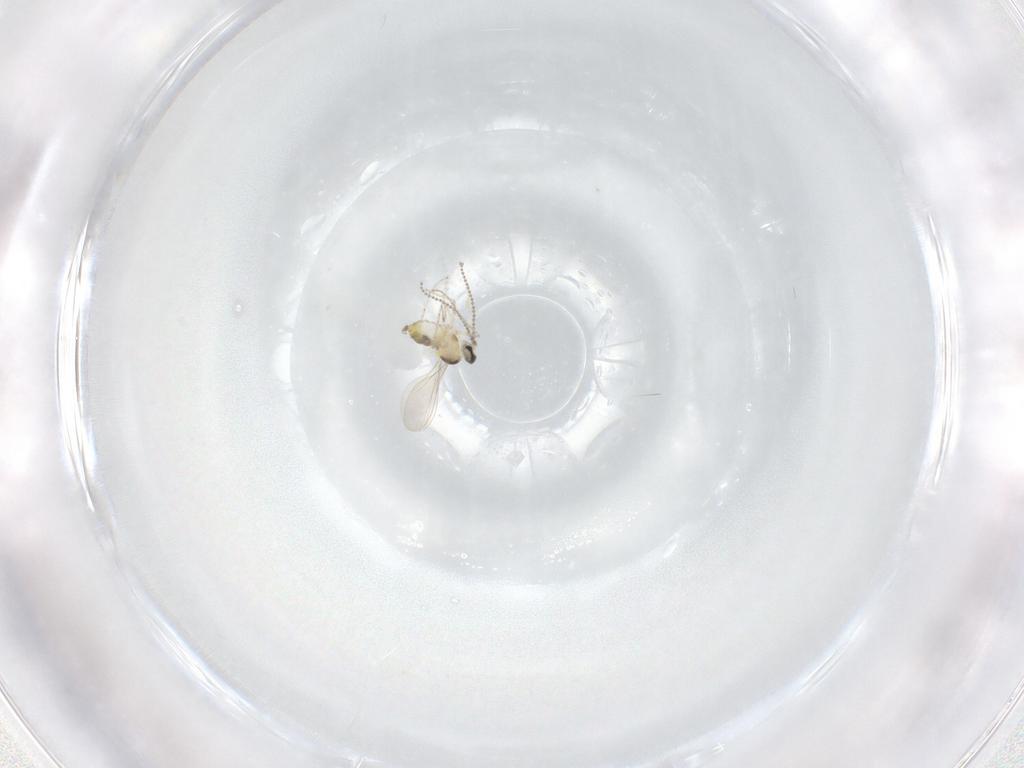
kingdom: Animalia
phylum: Arthropoda
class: Insecta
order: Diptera
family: Cecidomyiidae
